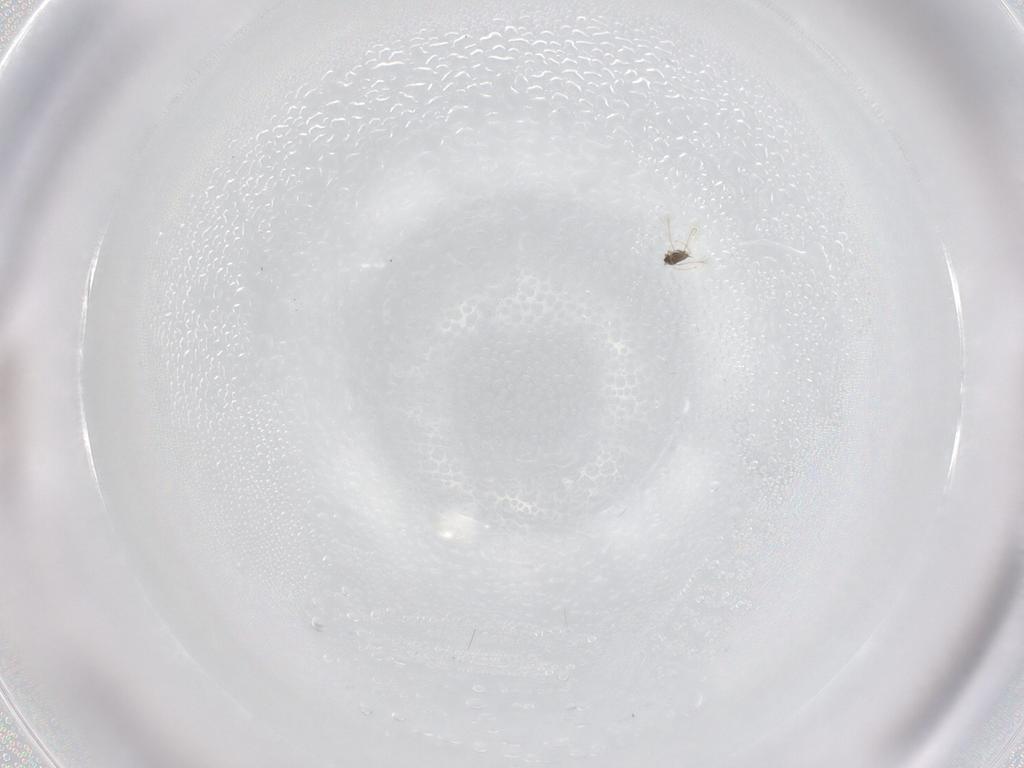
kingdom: Animalia
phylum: Arthropoda
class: Insecta
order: Hymenoptera
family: Mymaridae
